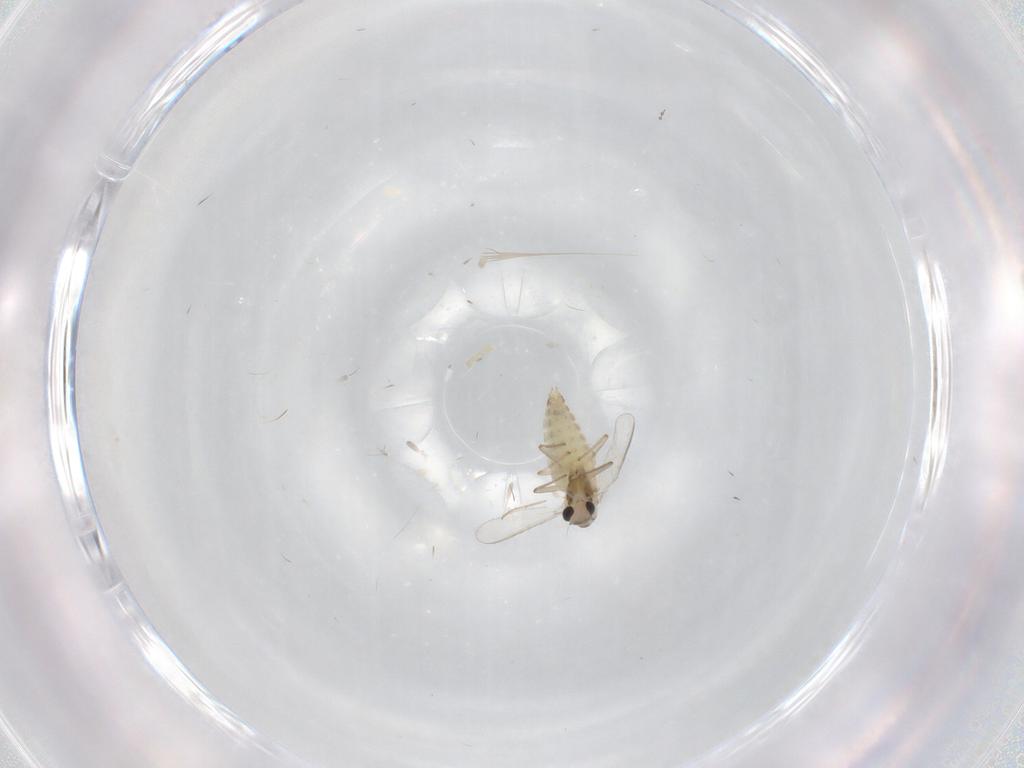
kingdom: Animalia
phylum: Arthropoda
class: Insecta
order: Diptera
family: Chironomidae
